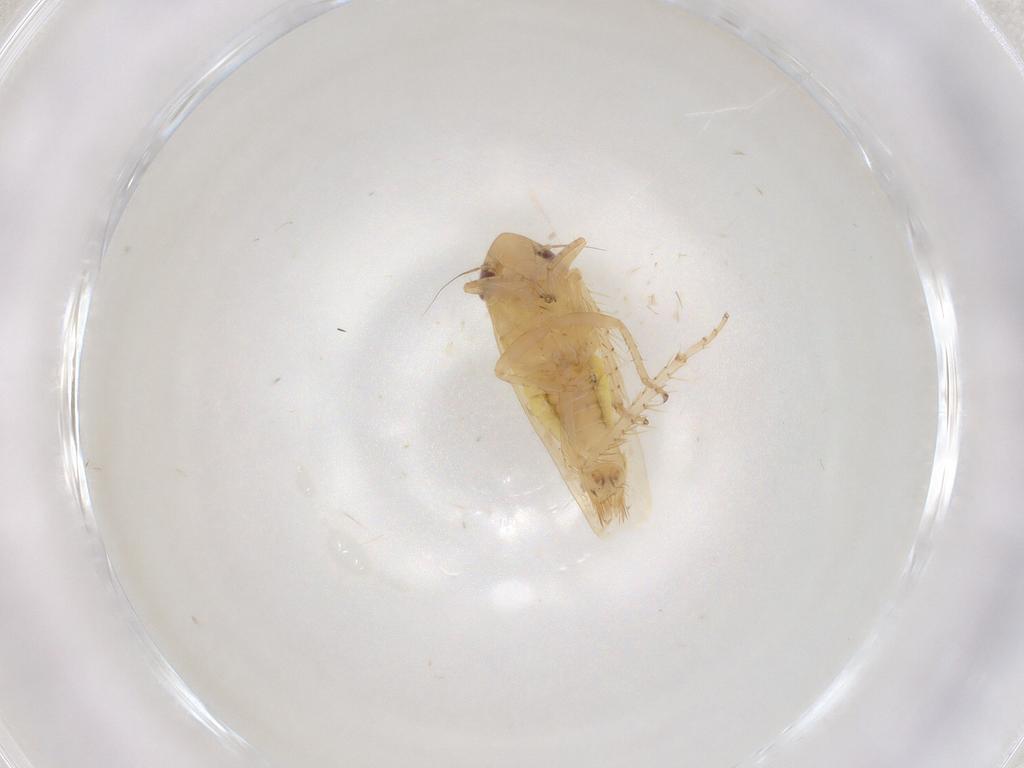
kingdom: Animalia
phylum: Arthropoda
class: Insecta
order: Hemiptera
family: Cicadellidae
